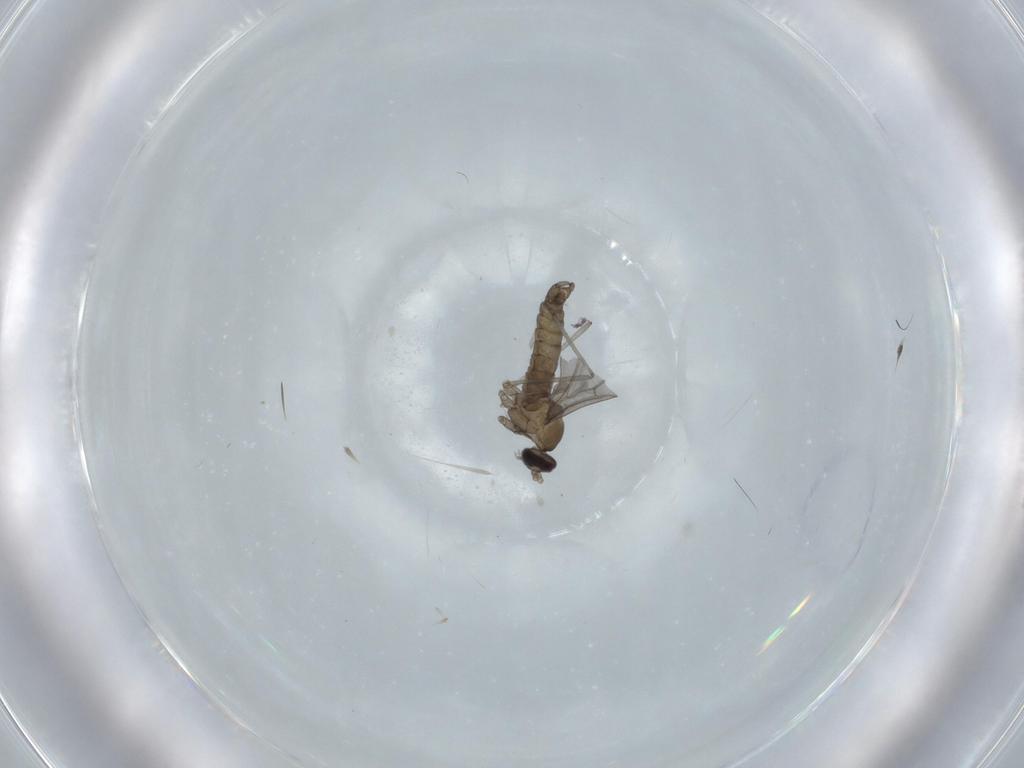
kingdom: Animalia
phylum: Arthropoda
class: Insecta
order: Diptera
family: Cecidomyiidae
